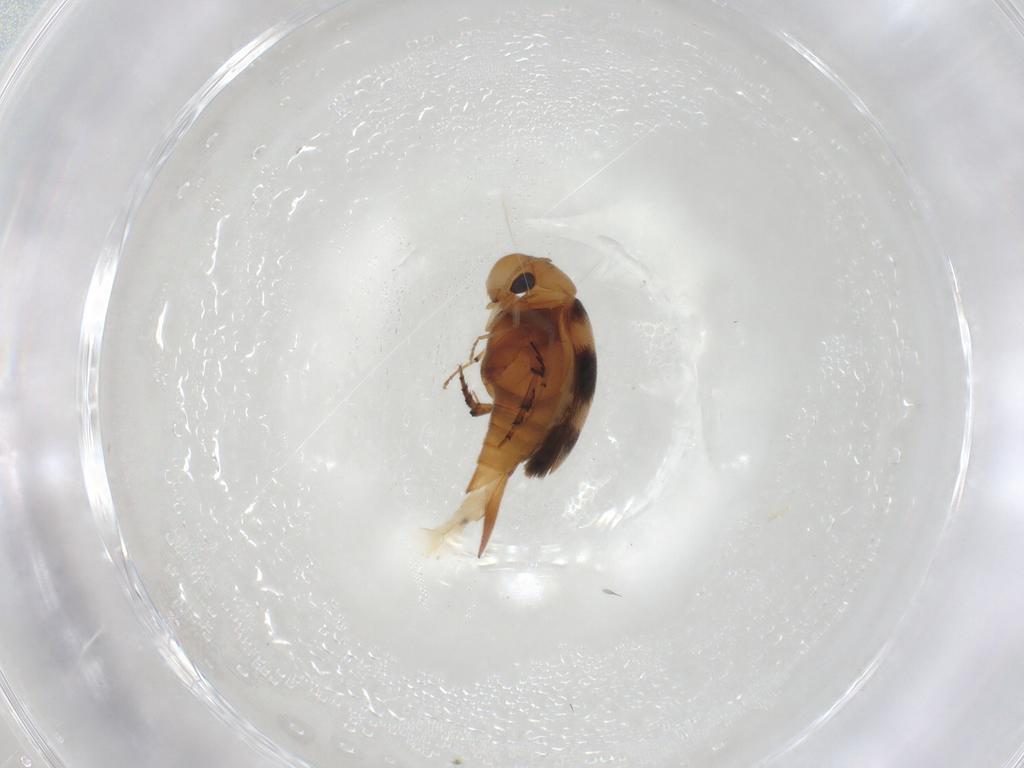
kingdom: Animalia
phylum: Arthropoda
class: Insecta
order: Coleoptera
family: Mordellidae
